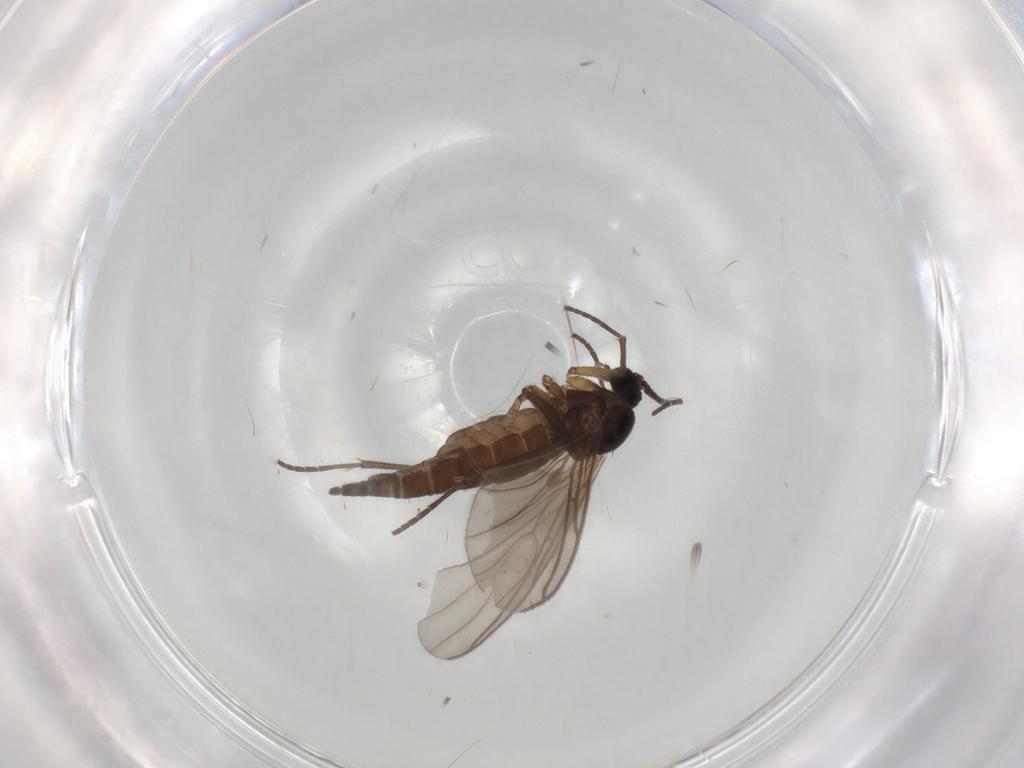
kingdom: Animalia
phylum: Arthropoda
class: Insecta
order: Diptera
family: Sciaridae
